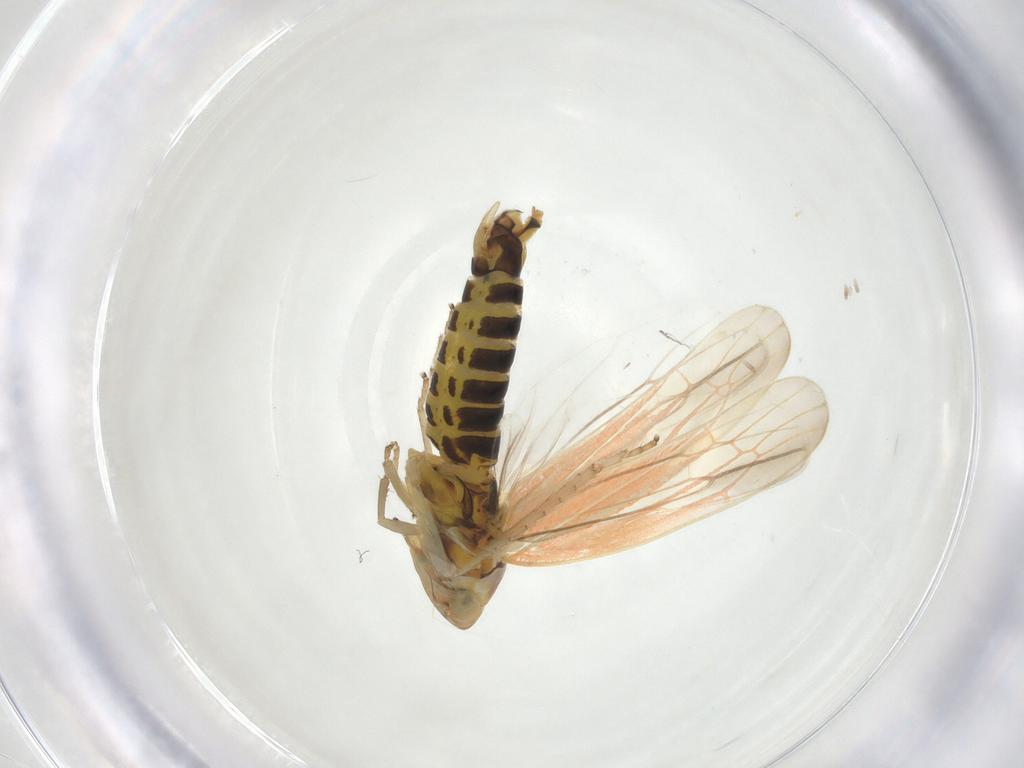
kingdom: Animalia
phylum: Arthropoda
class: Insecta
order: Hemiptera
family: Cicadellidae
